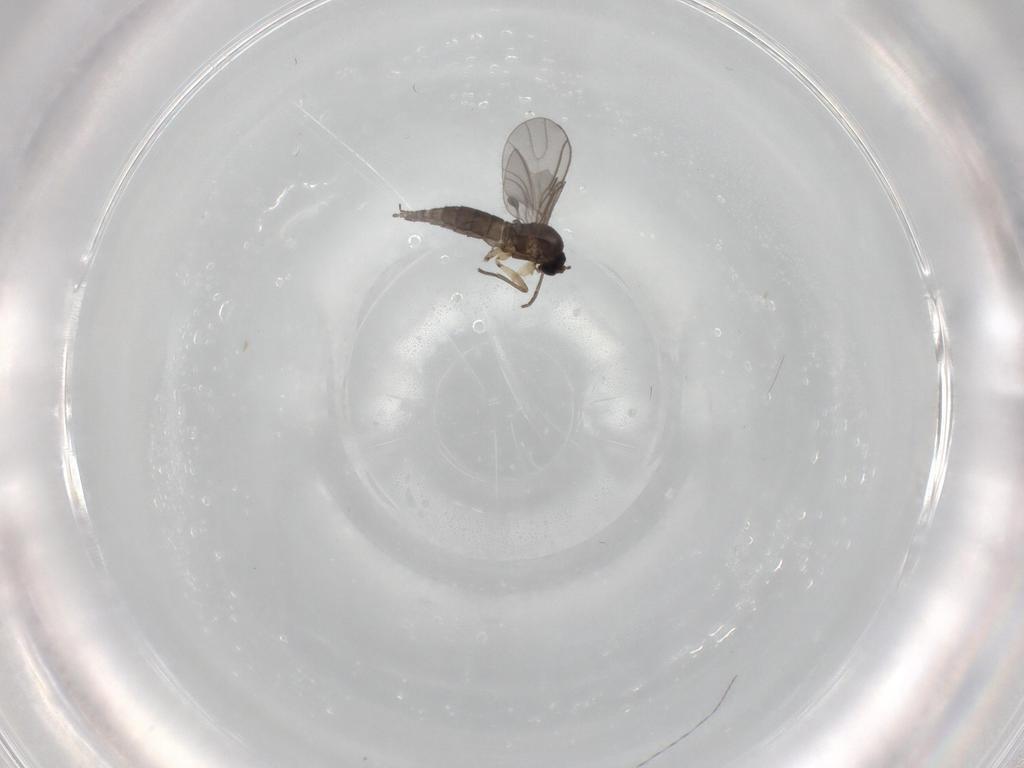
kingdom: Animalia
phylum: Arthropoda
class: Insecta
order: Diptera
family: Sciaridae
